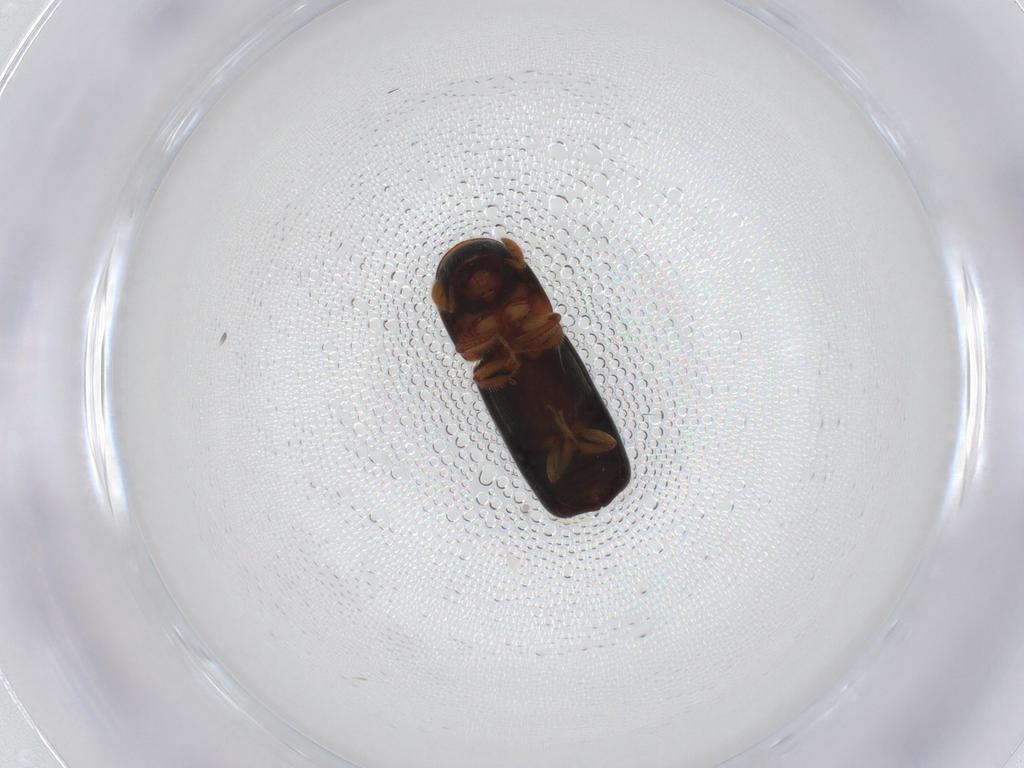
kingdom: Animalia
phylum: Arthropoda
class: Insecta
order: Coleoptera
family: Curculionidae
